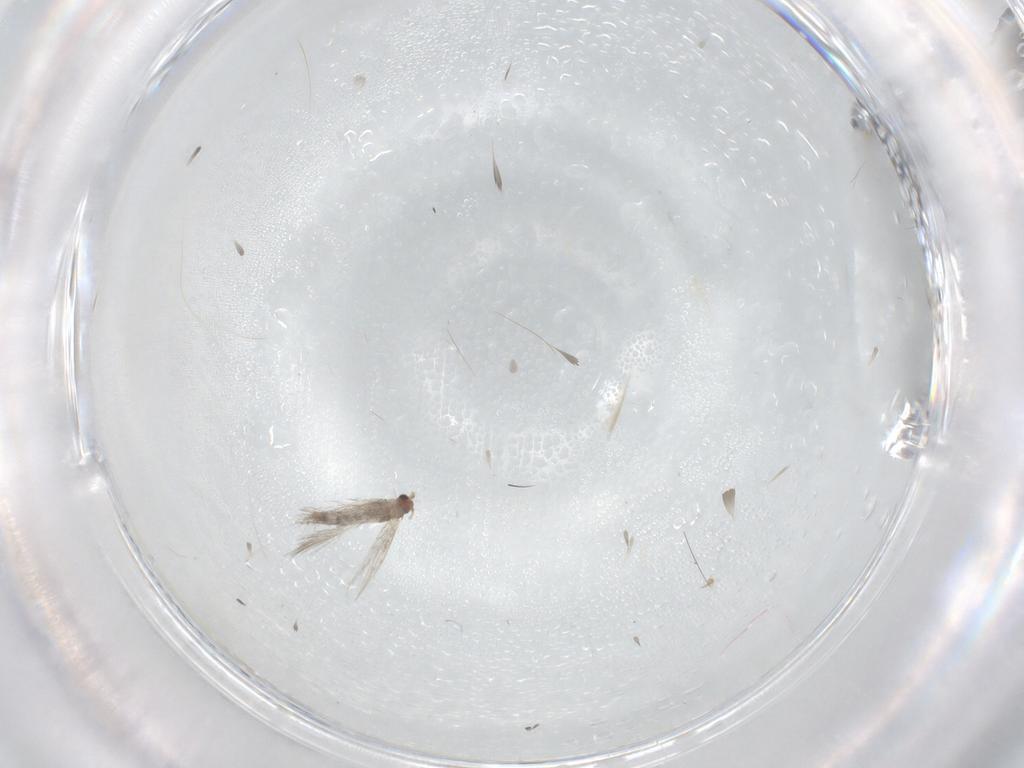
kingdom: Animalia
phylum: Arthropoda
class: Insecta
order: Lepidoptera
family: Nepticulidae
